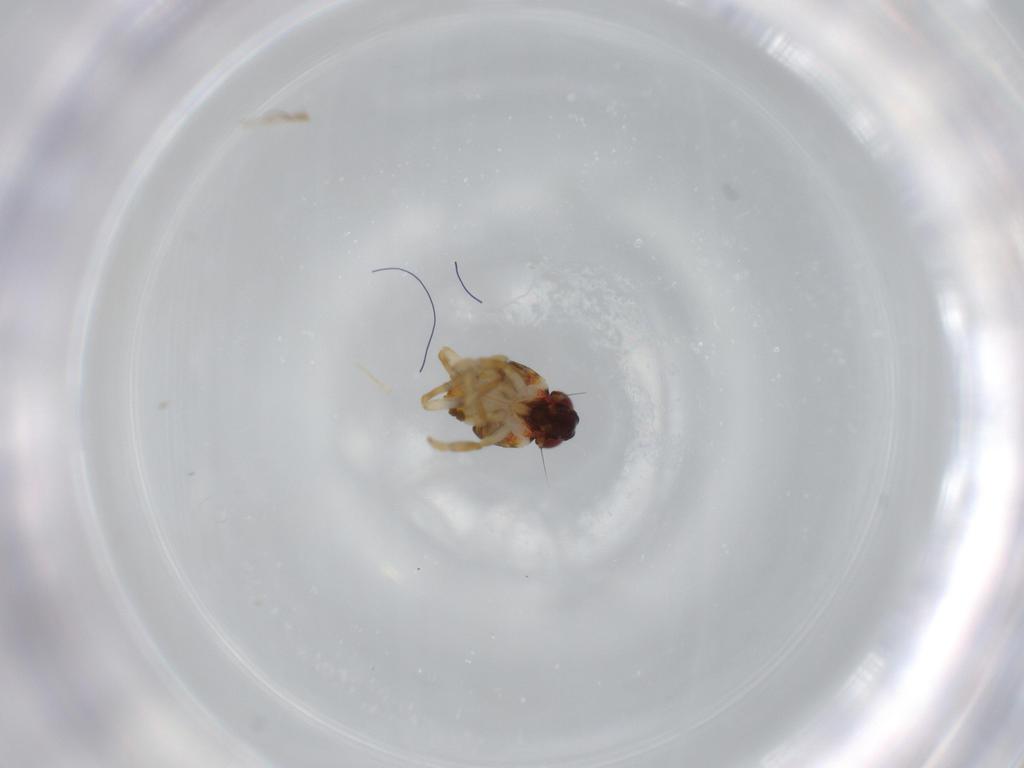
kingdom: Animalia
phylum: Arthropoda
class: Insecta
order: Hemiptera
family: Issidae
